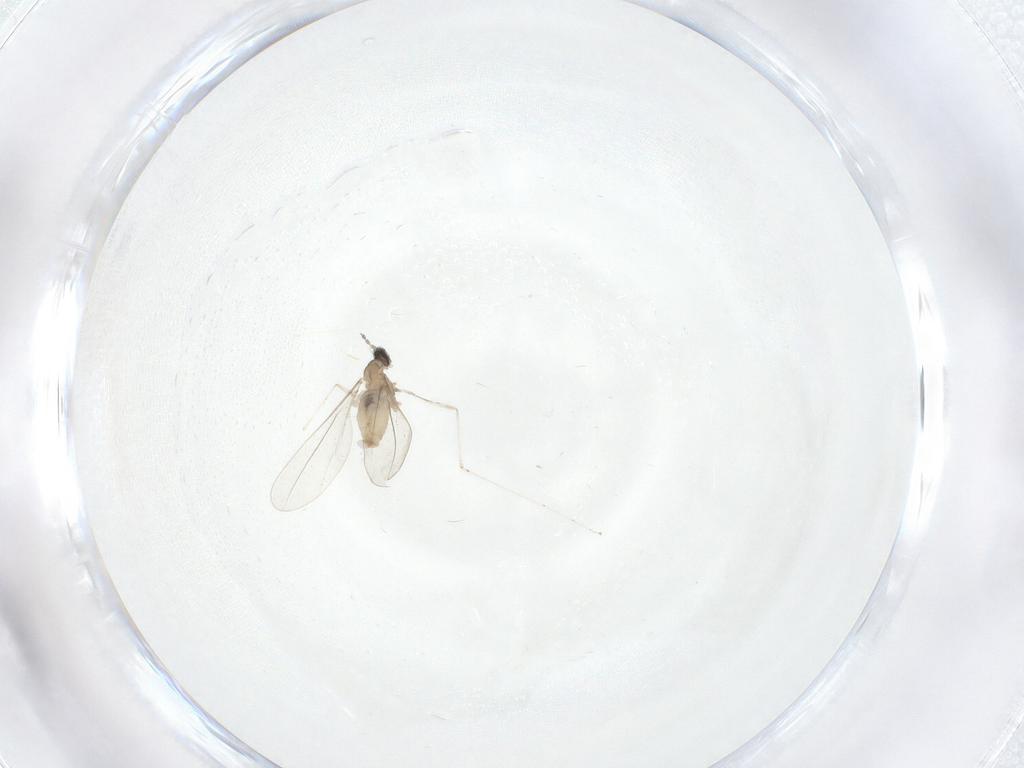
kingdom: Animalia
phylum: Arthropoda
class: Insecta
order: Diptera
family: Cecidomyiidae
